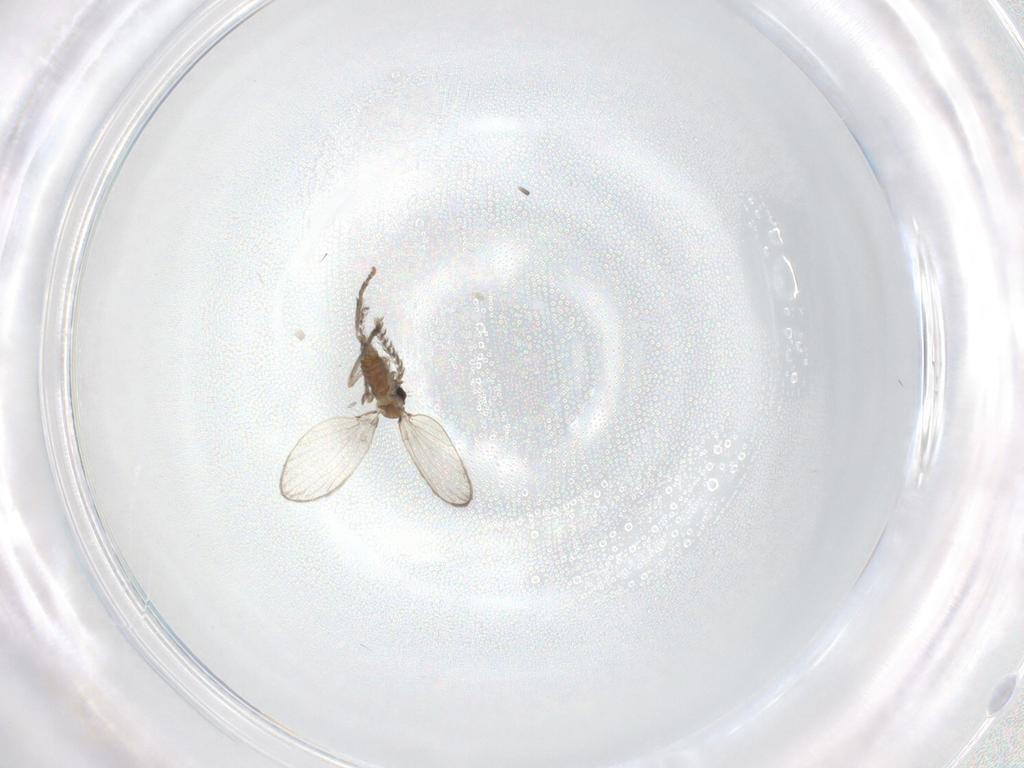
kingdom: Animalia
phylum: Arthropoda
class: Insecta
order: Diptera
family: Psychodidae
